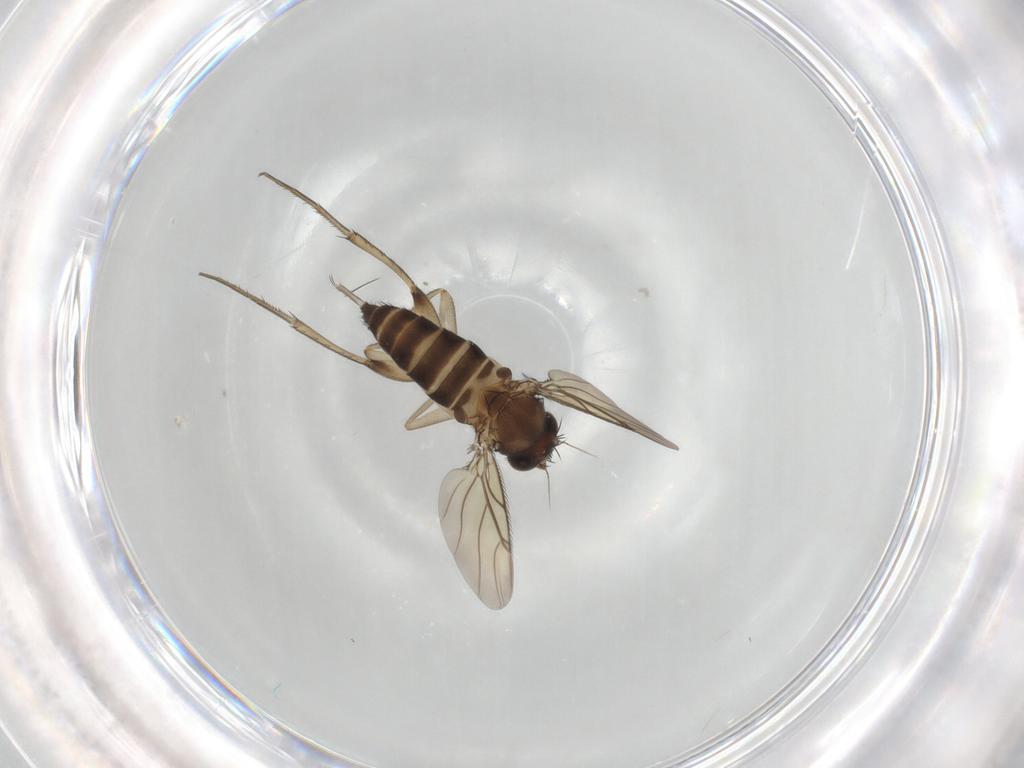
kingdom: Animalia
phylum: Arthropoda
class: Insecta
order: Diptera
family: Phoridae
